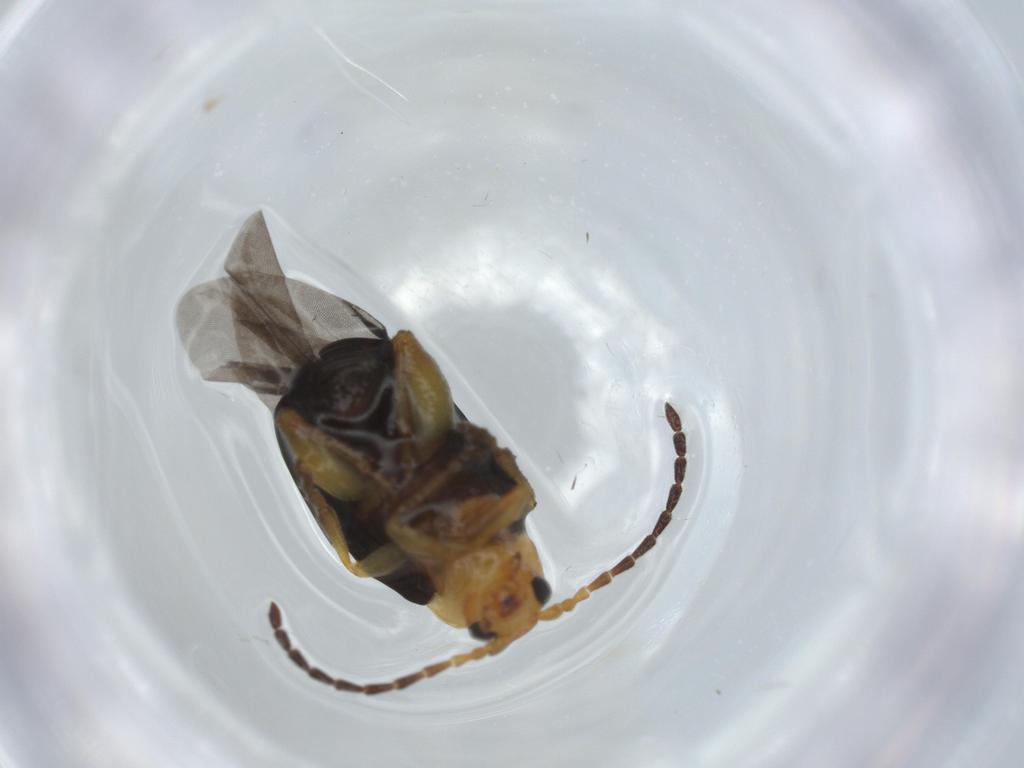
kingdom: Animalia
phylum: Arthropoda
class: Insecta
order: Coleoptera
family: Chrysomelidae
